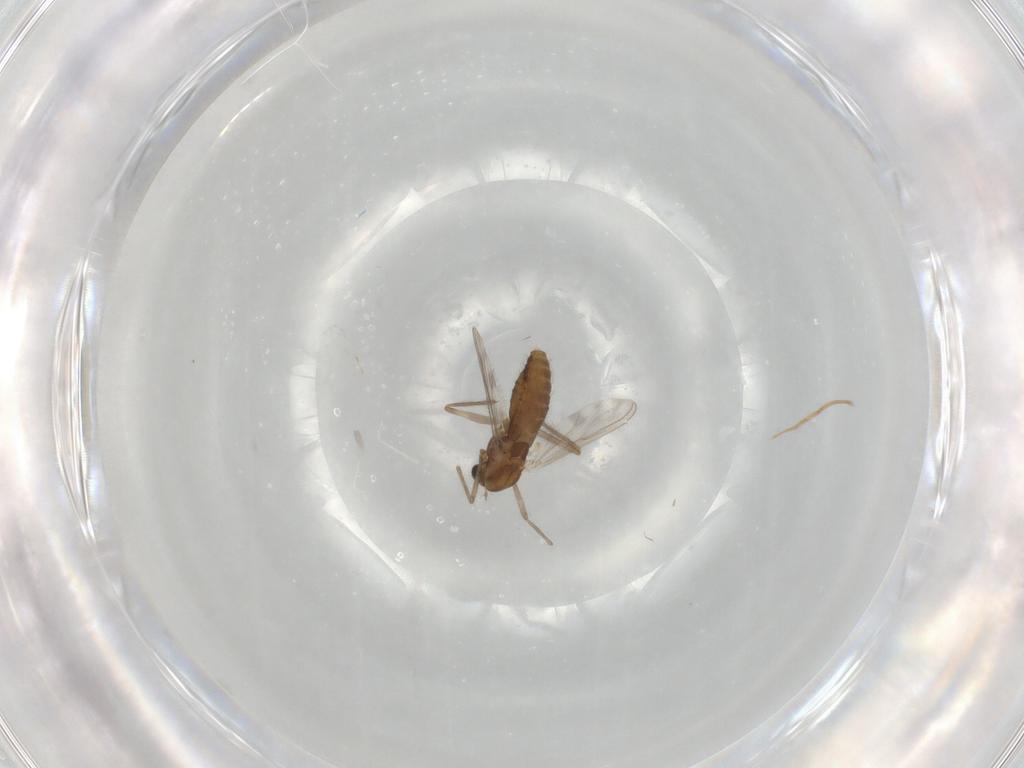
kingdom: Animalia
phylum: Arthropoda
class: Insecta
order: Diptera
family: Chironomidae
